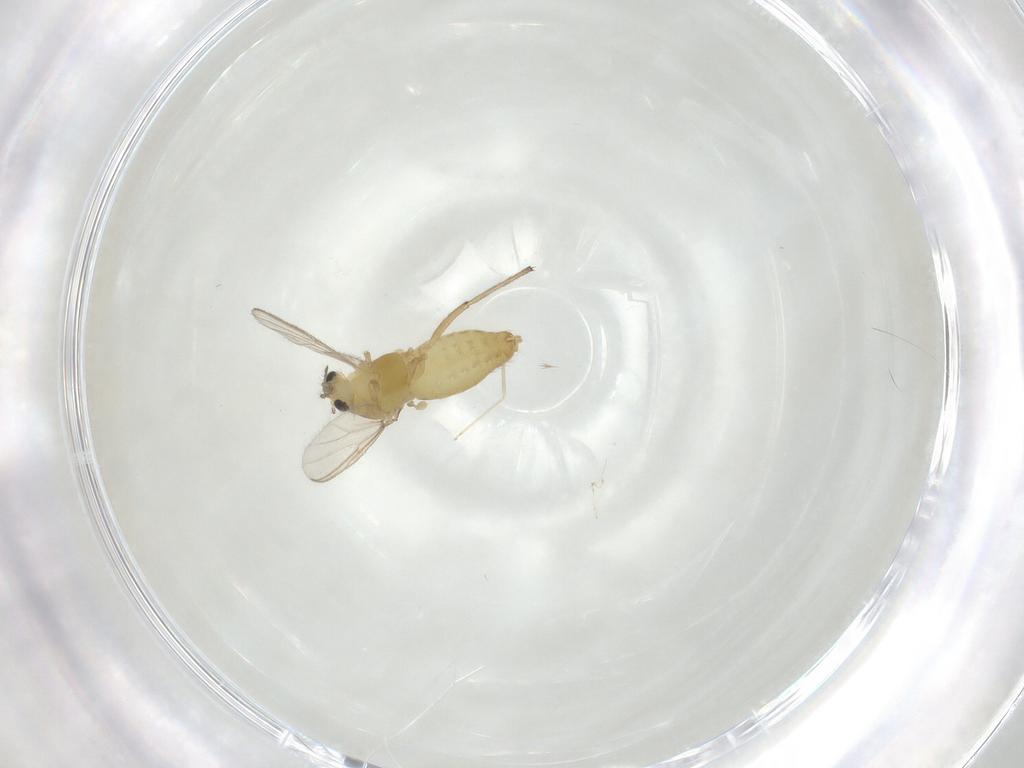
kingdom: Animalia
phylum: Arthropoda
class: Insecta
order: Diptera
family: Chironomidae
